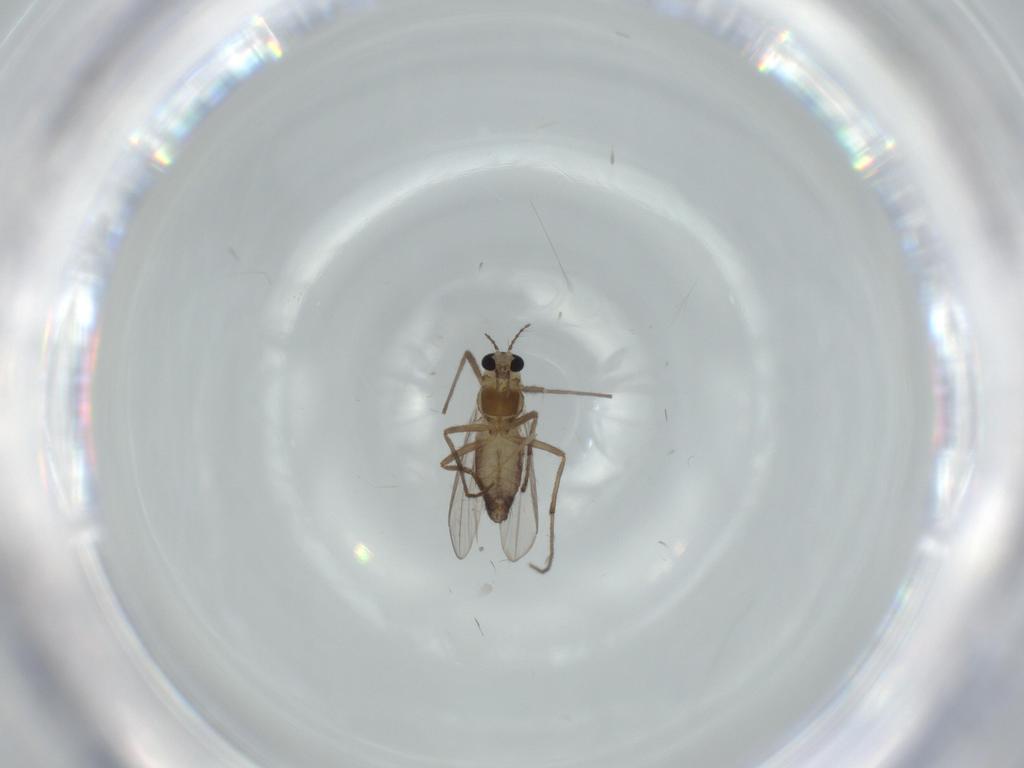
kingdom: Animalia
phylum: Arthropoda
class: Insecta
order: Diptera
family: Chironomidae
